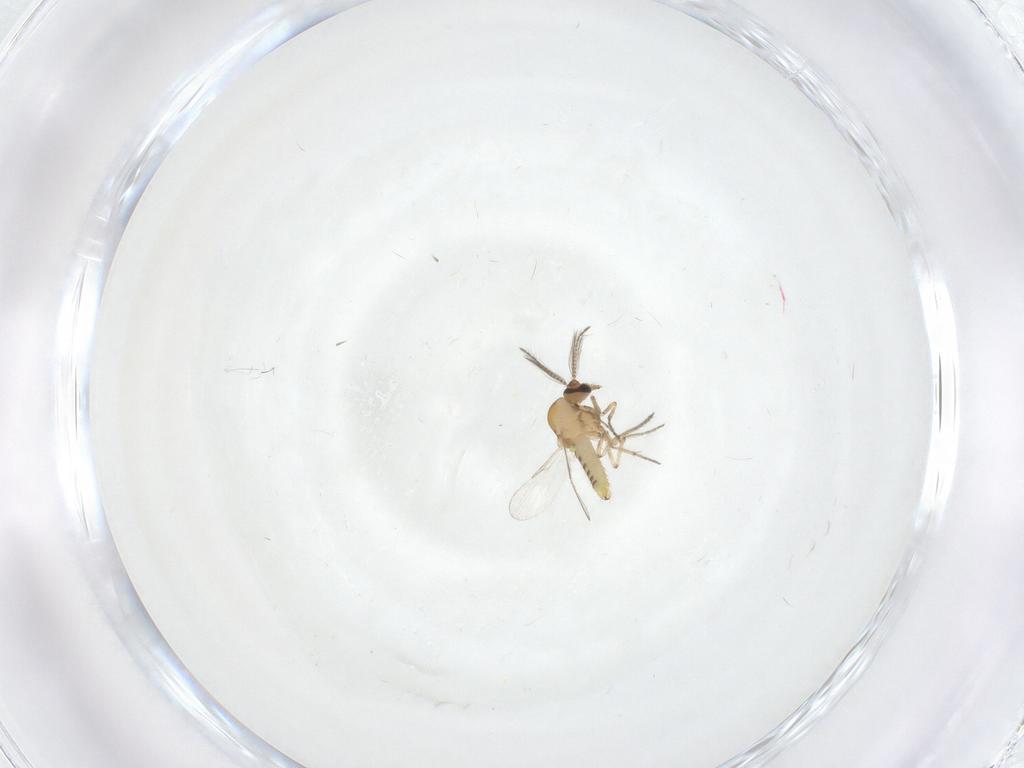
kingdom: Animalia
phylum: Arthropoda
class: Insecta
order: Diptera
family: Ceratopogonidae
